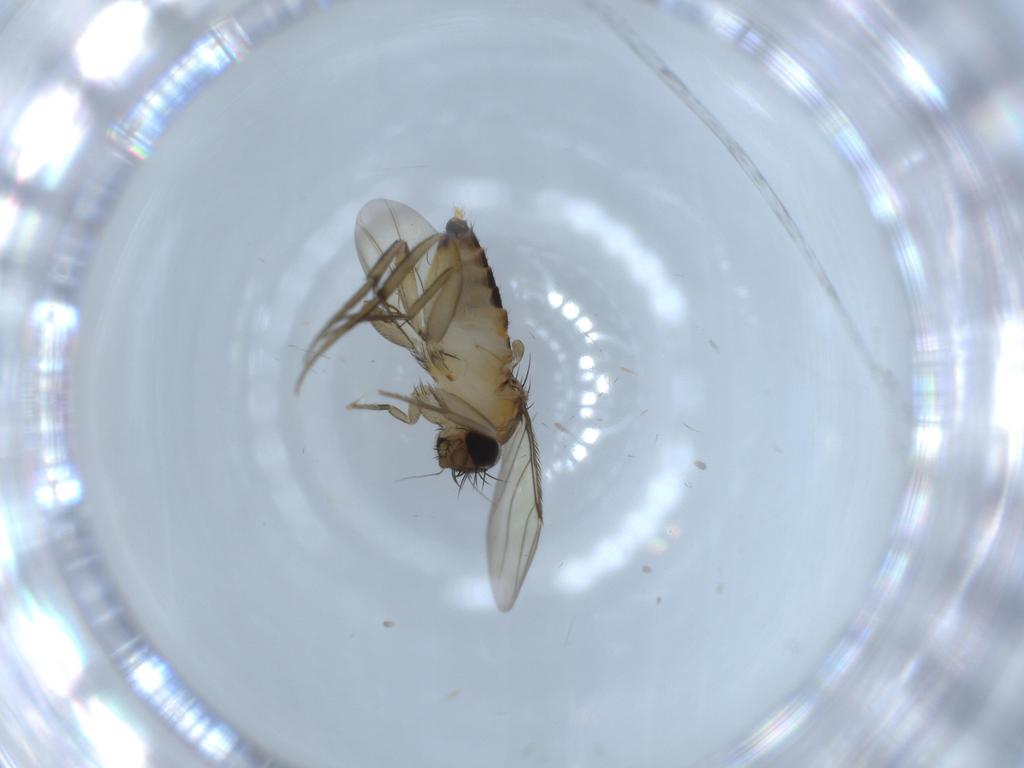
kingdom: Animalia
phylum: Arthropoda
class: Insecta
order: Diptera
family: Phoridae
